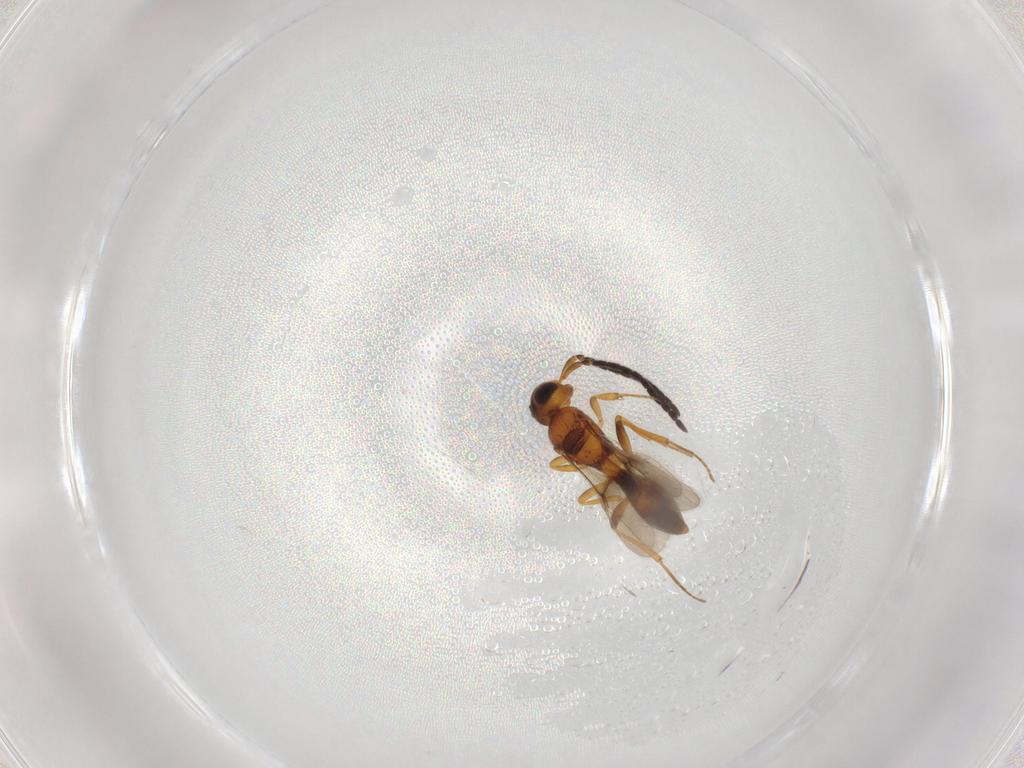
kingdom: Animalia
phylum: Arthropoda
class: Insecta
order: Hymenoptera
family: Scelionidae
